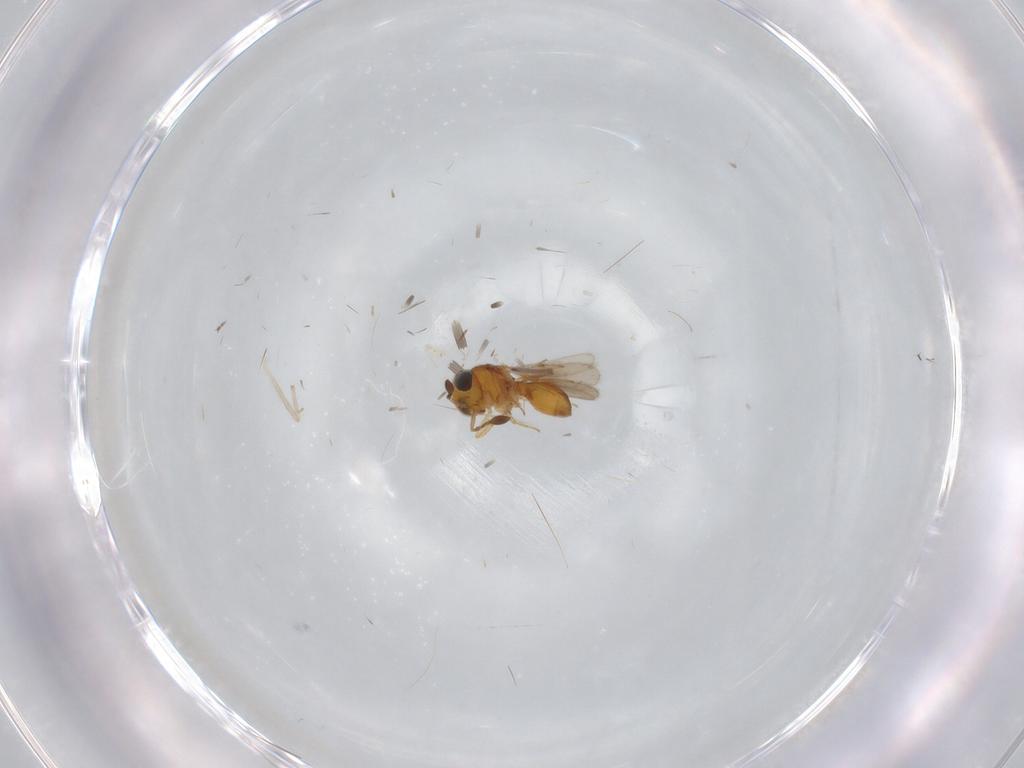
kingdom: Animalia
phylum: Arthropoda
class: Insecta
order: Hymenoptera
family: Scelionidae
